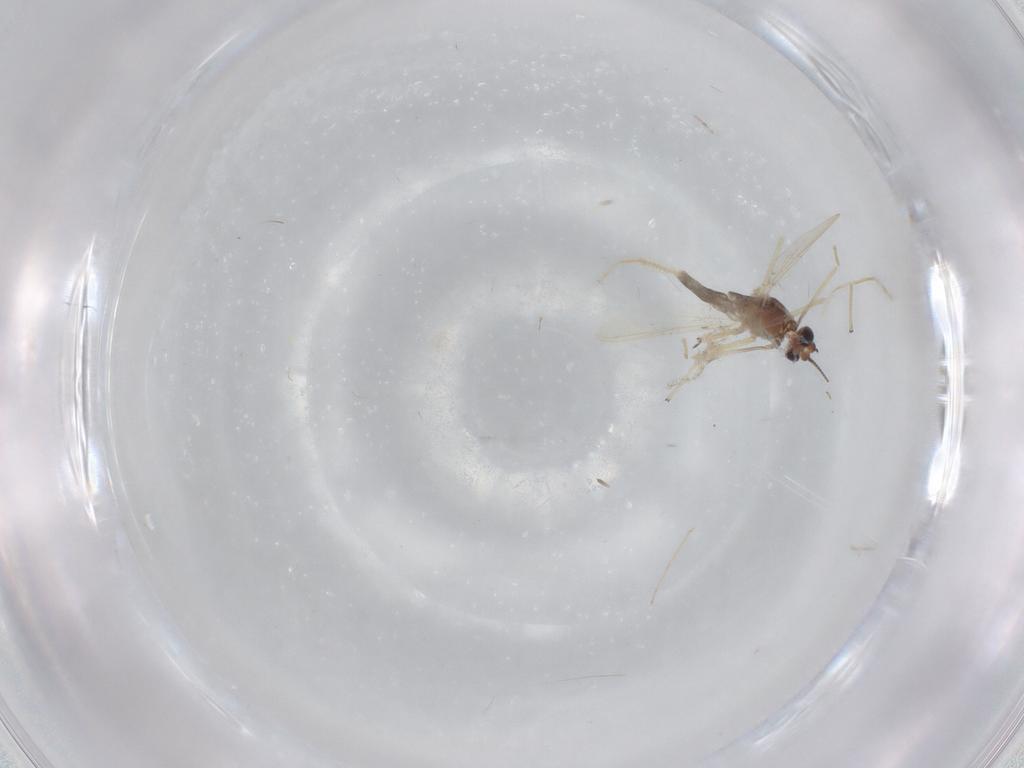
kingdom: Animalia
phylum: Arthropoda
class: Insecta
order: Diptera
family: Chironomidae
